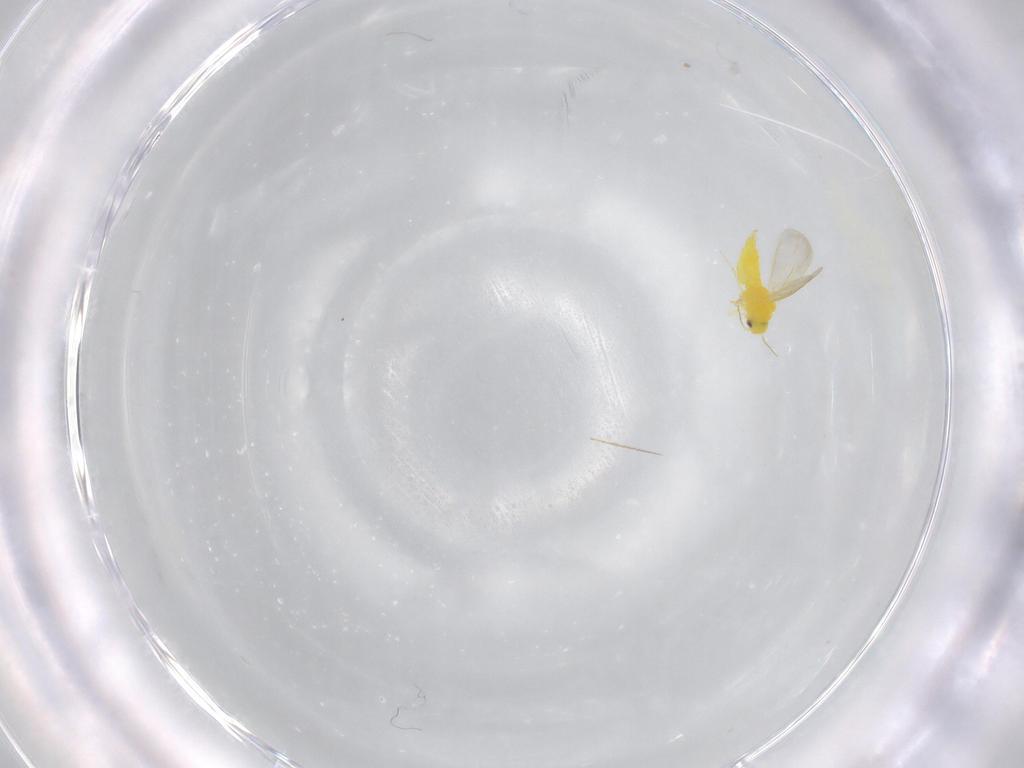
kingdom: Animalia
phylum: Arthropoda
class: Insecta
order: Hemiptera
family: Aleyrodidae
